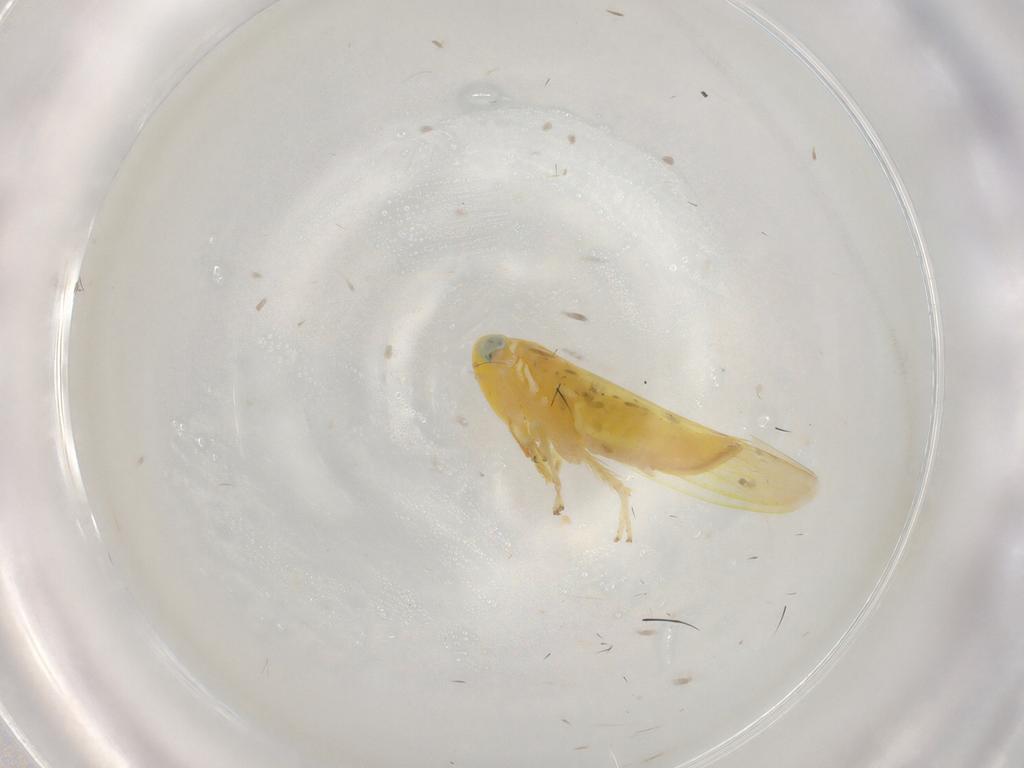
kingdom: Animalia
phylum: Arthropoda
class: Insecta
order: Hemiptera
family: Cicadellidae
